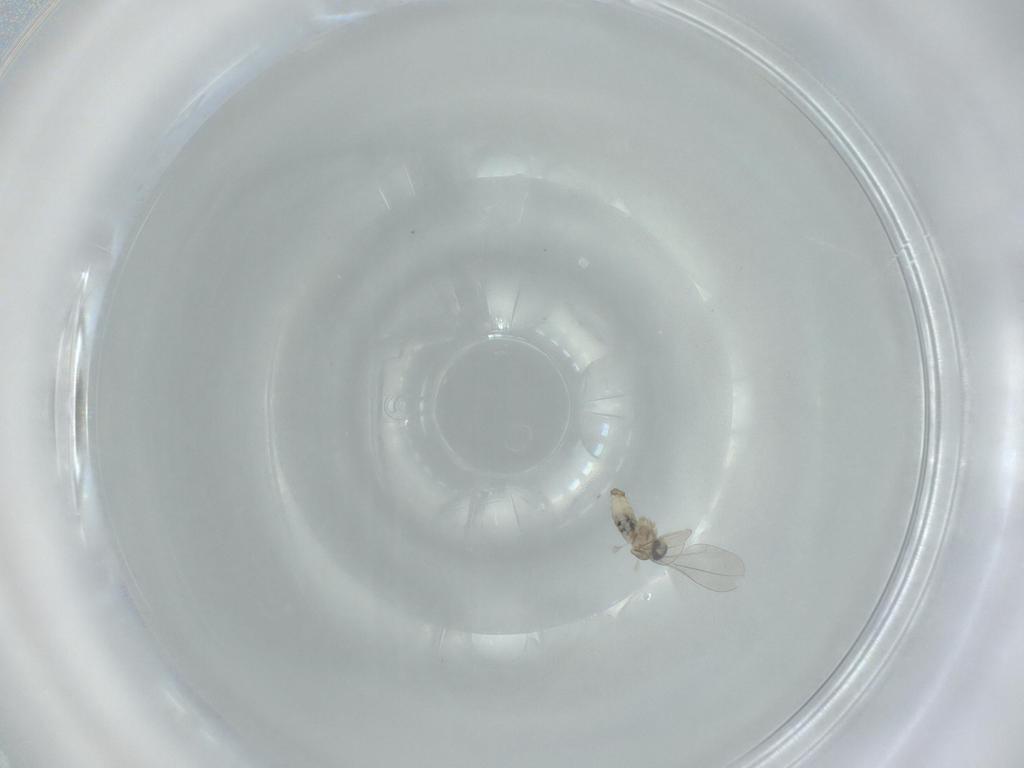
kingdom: Animalia
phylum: Arthropoda
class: Insecta
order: Diptera
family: Cecidomyiidae
